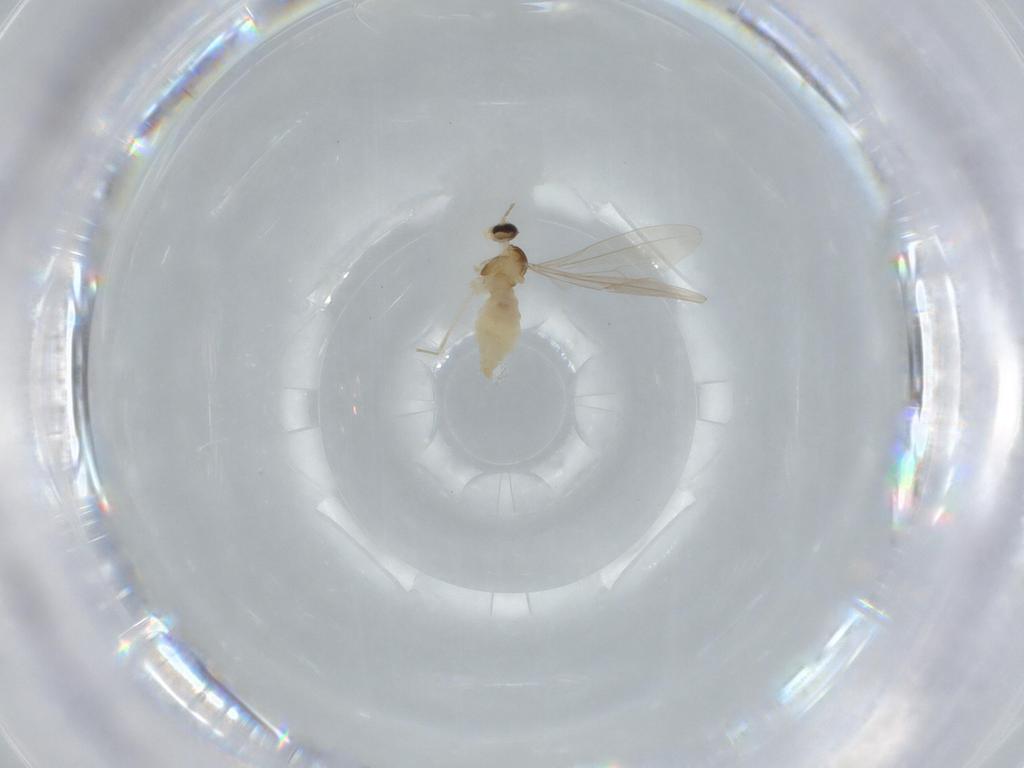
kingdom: Animalia
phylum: Arthropoda
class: Insecta
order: Diptera
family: Cecidomyiidae
